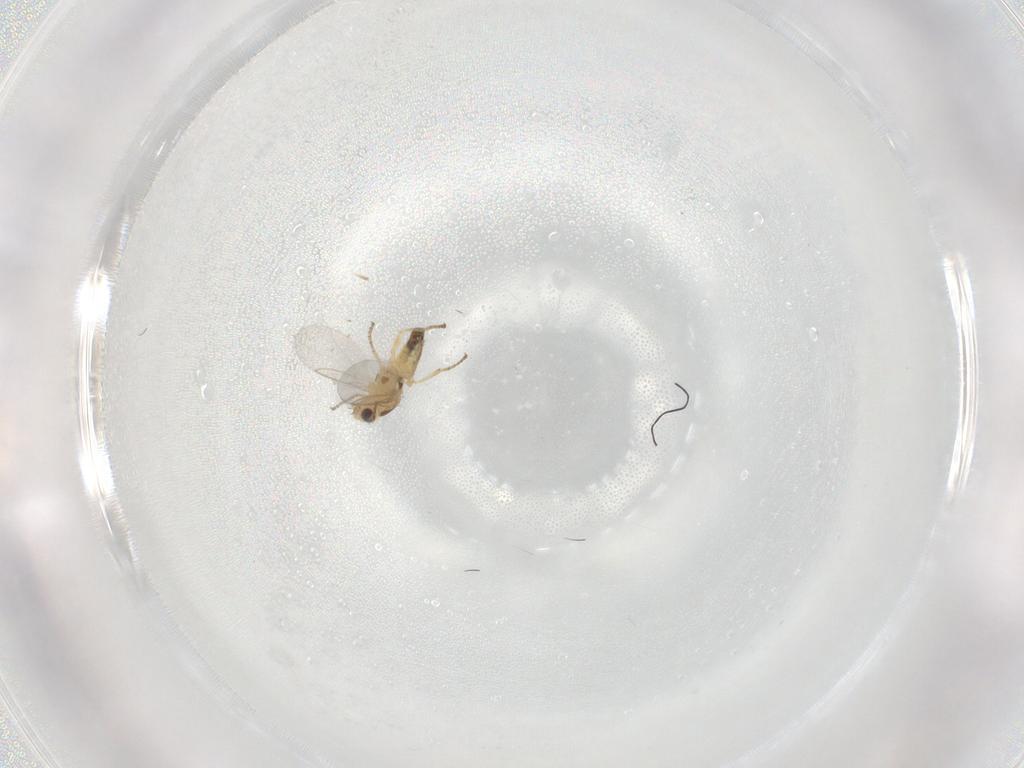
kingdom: Animalia
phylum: Arthropoda
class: Insecta
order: Diptera
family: Agromyzidae
